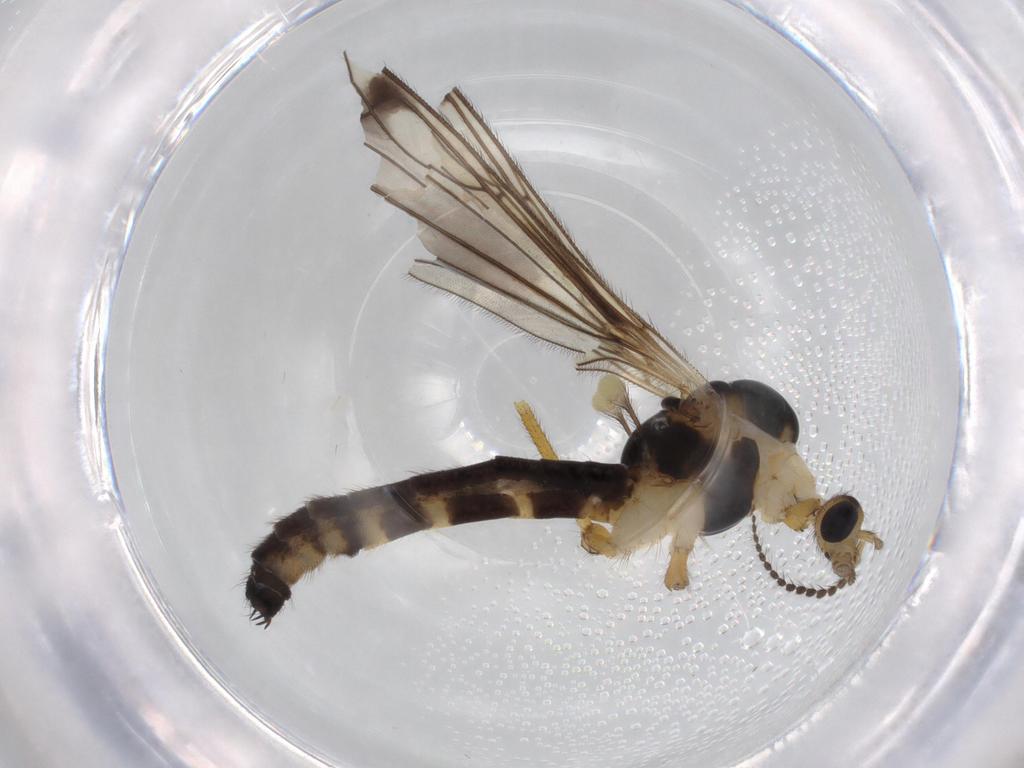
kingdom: Animalia
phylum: Arthropoda
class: Insecta
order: Diptera
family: Limoniidae
